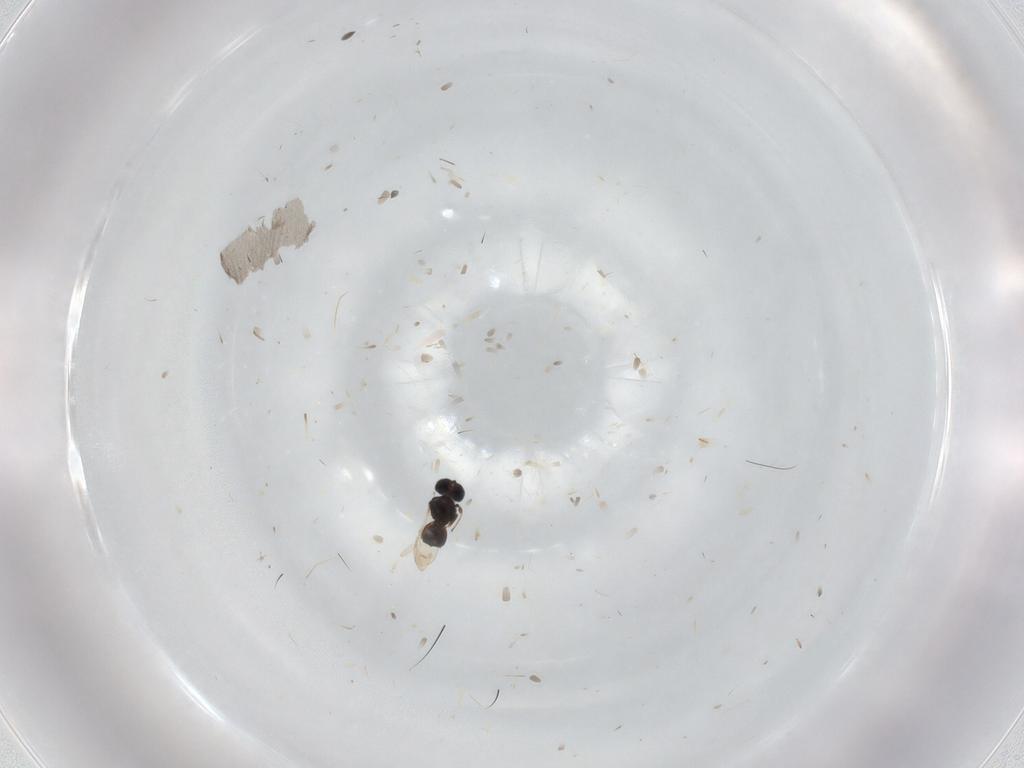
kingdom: Animalia
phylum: Arthropoda
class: Insecta
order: Hymenoptera
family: Scelionidae
